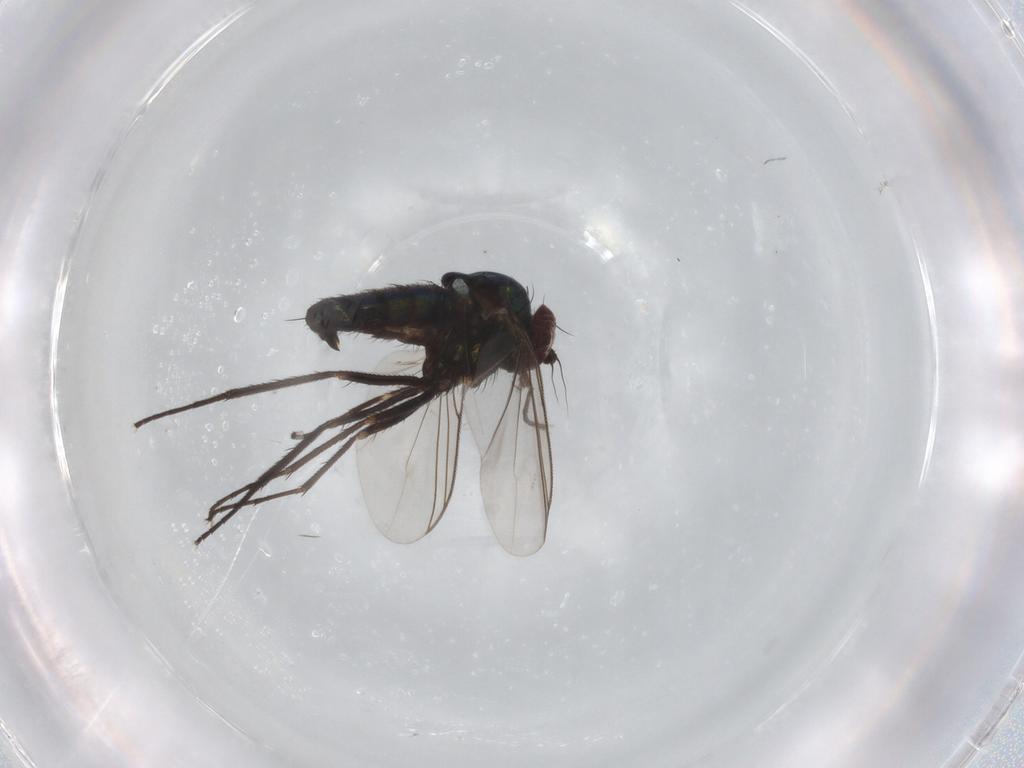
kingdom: Animalia
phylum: Arthropoda
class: Insecta
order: Diptera
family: Dolichopodidae
